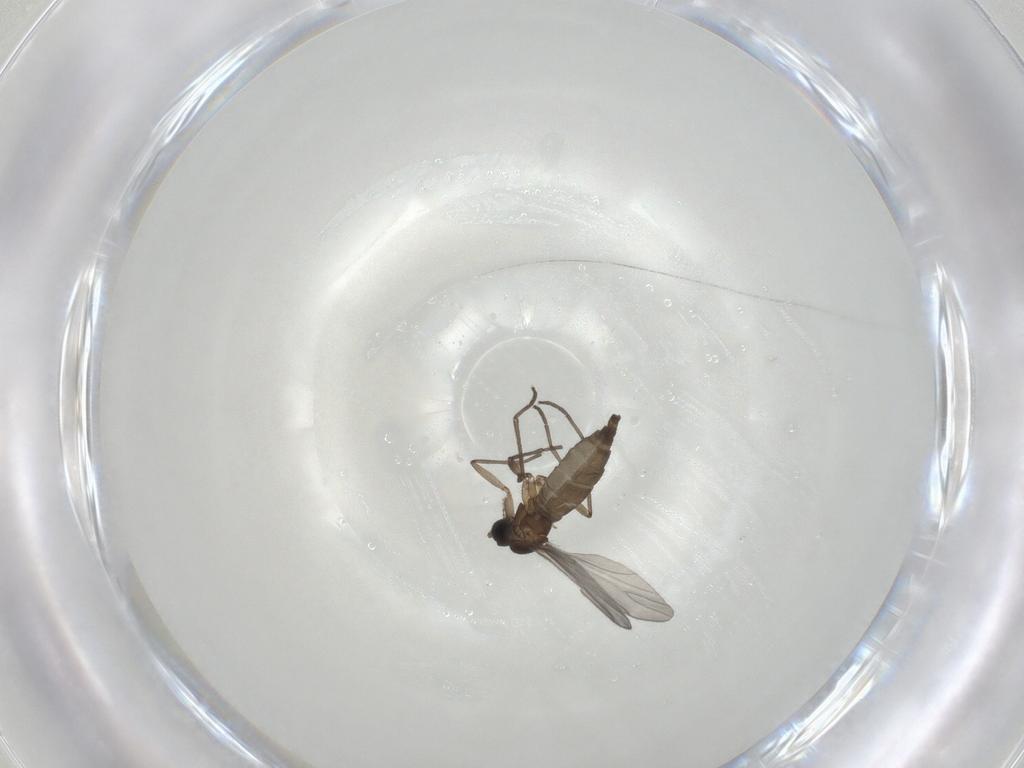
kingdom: Animalia
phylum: Arthropoda
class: Insecta
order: Diptera
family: Sciaridae
